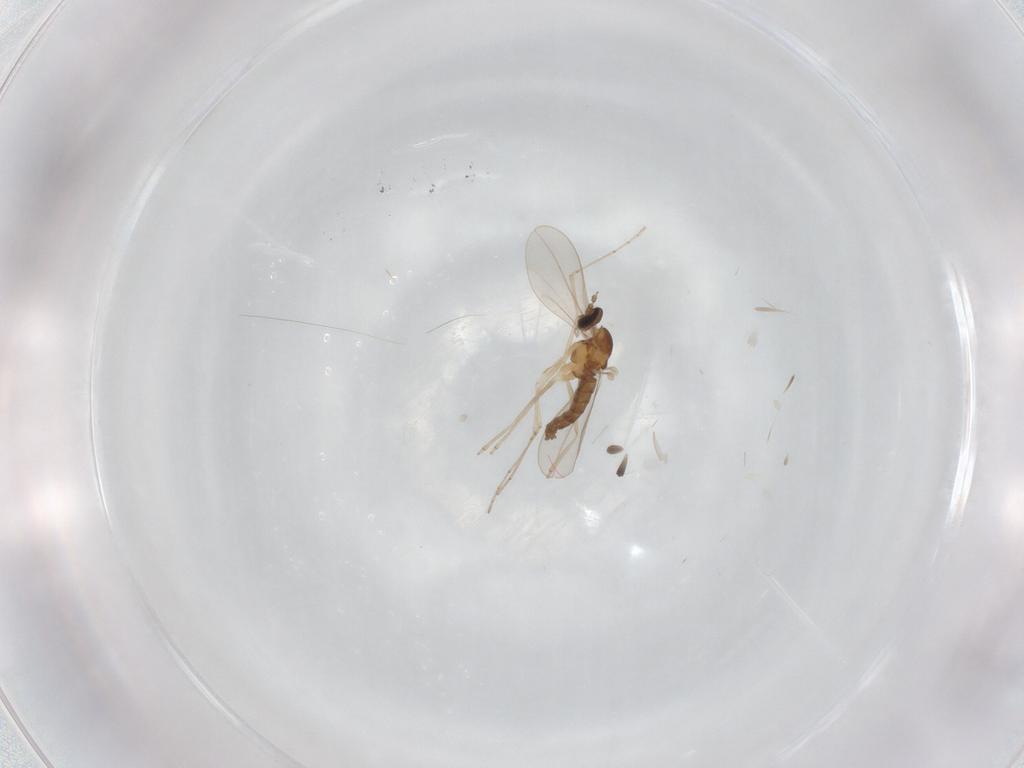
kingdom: Animalia
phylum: Arthropoda
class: Insecta
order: Diptera
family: Cecidomyiidae
